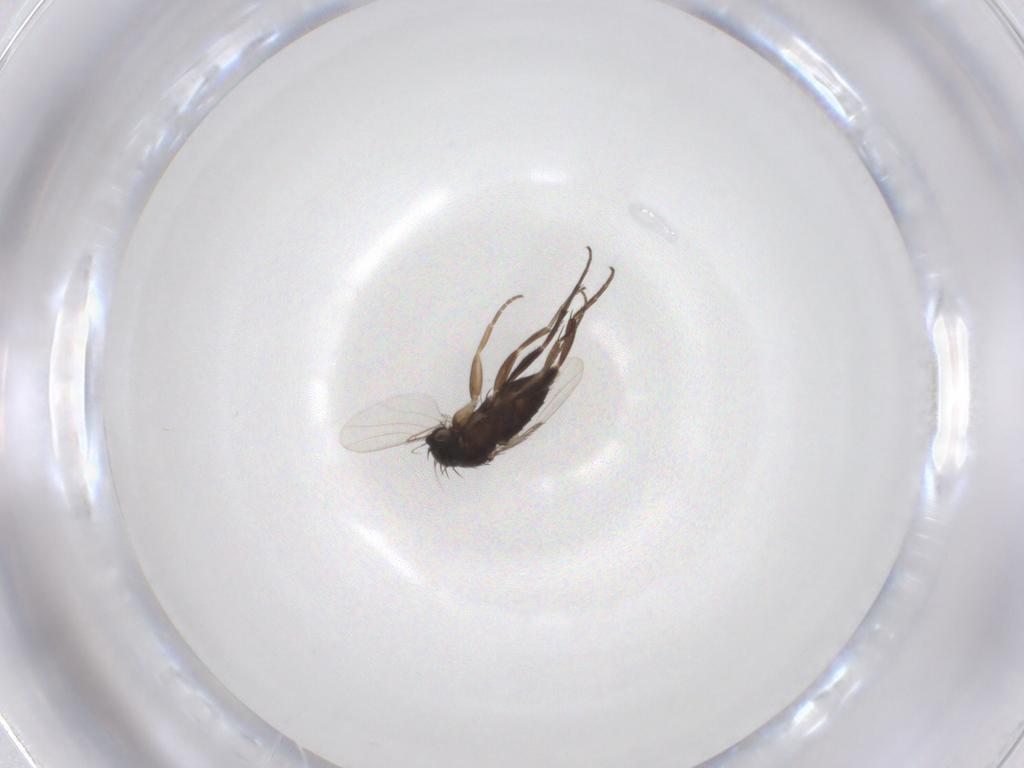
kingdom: Animalia
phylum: Arthropoda
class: Insecta
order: Diptera
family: Phoridae
